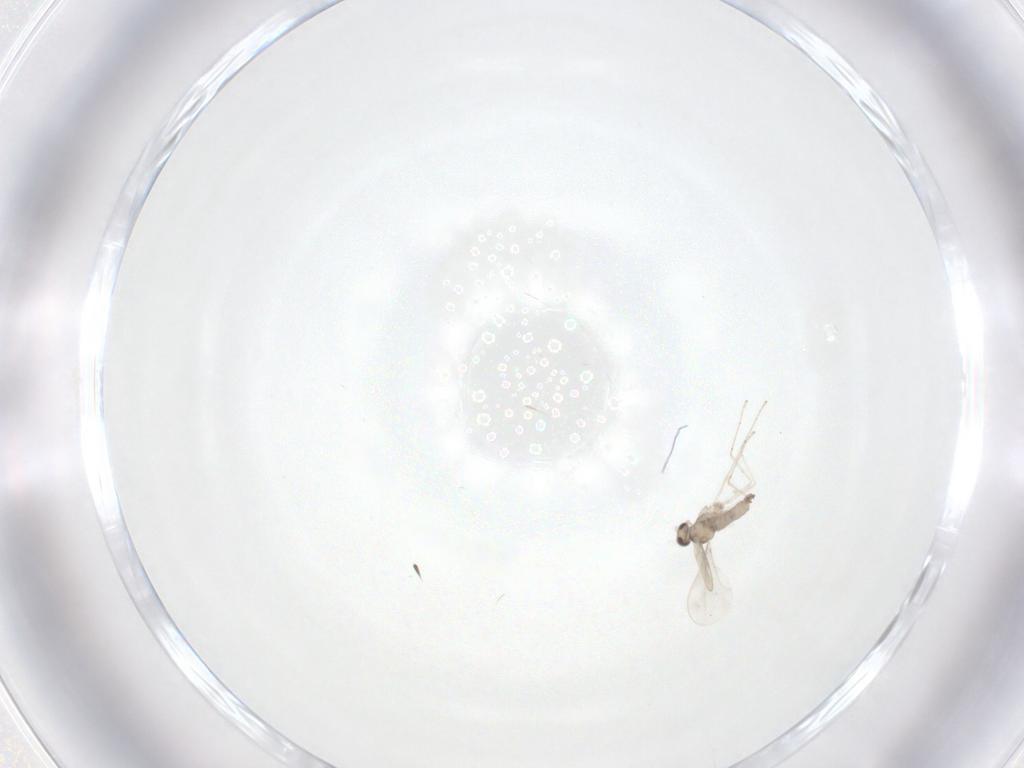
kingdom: Animalia
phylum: Arthropoda
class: Insecta
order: Diptera
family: Cecidomyiidae
